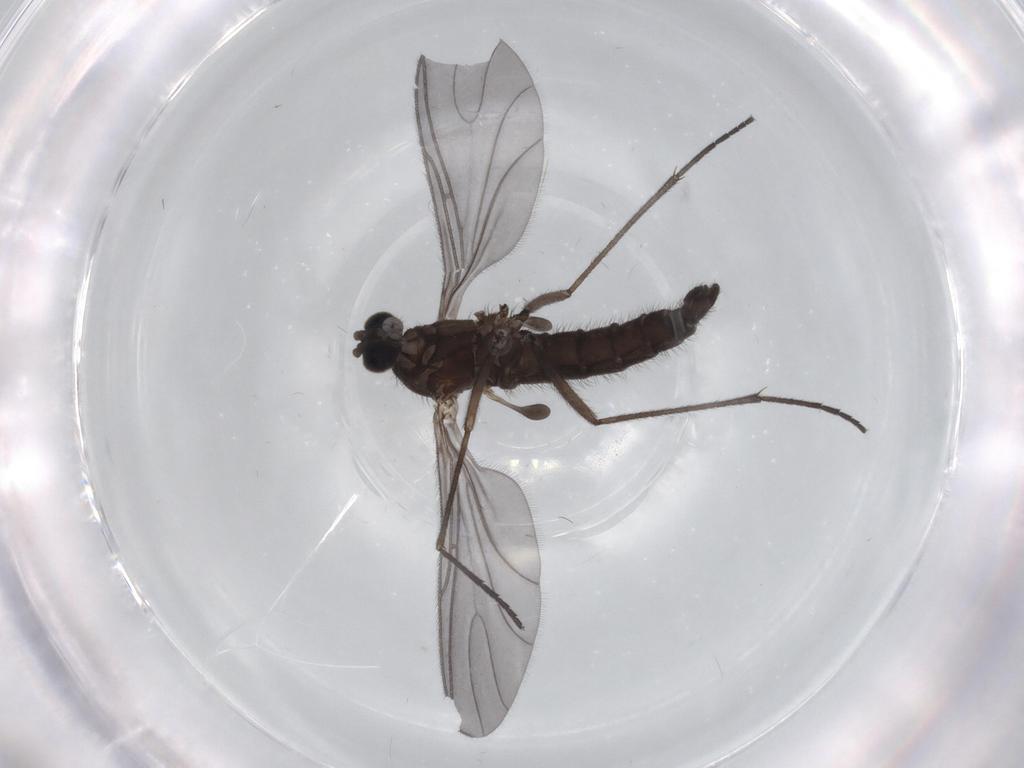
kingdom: Animalia
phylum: Arthropoda
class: Insecta
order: Diptera
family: Sciaridae
